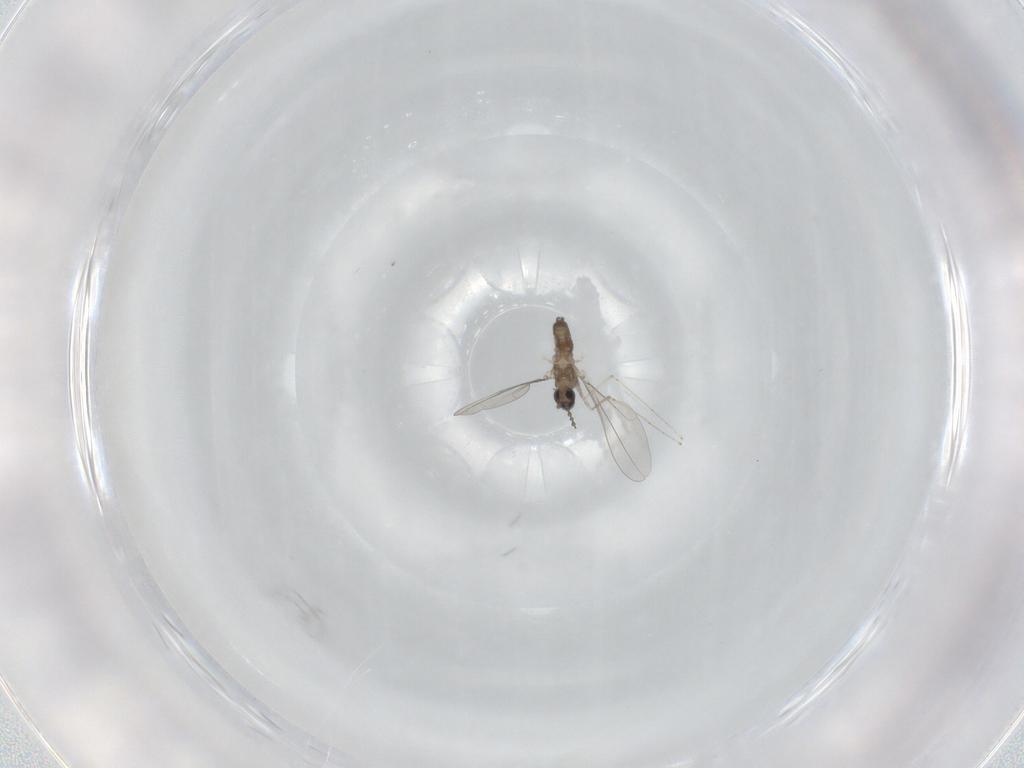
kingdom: Animalia
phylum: Arthropoda
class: Insecta
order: Diptera
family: Cecidomyiidae
